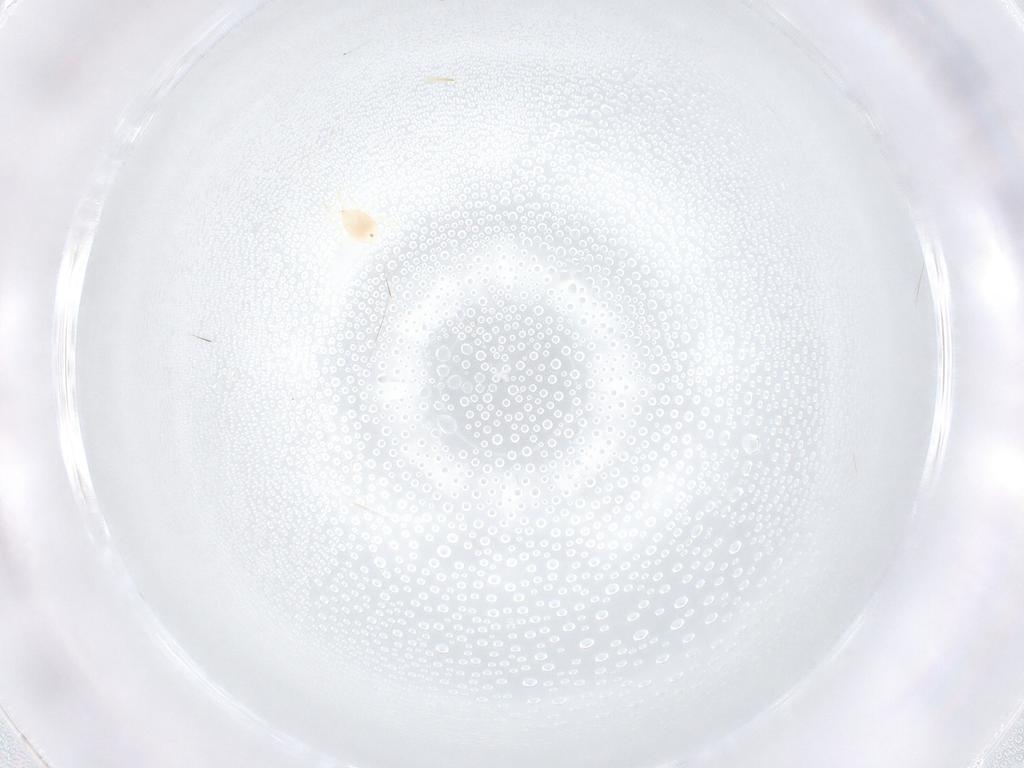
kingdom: Animalia
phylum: Arthropoda
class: Arachnida
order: Mesostigmata
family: Melicharidae
